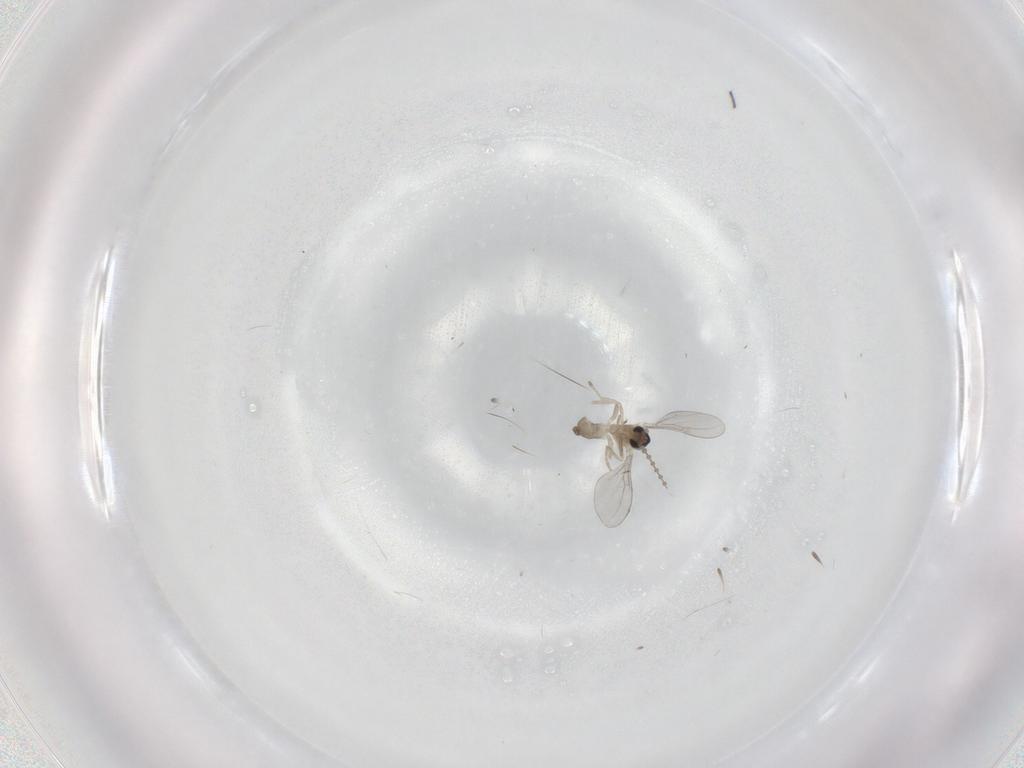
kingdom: Animalia
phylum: Arthropoda
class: Insecta
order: Diptera
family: Cecidomyiidae
